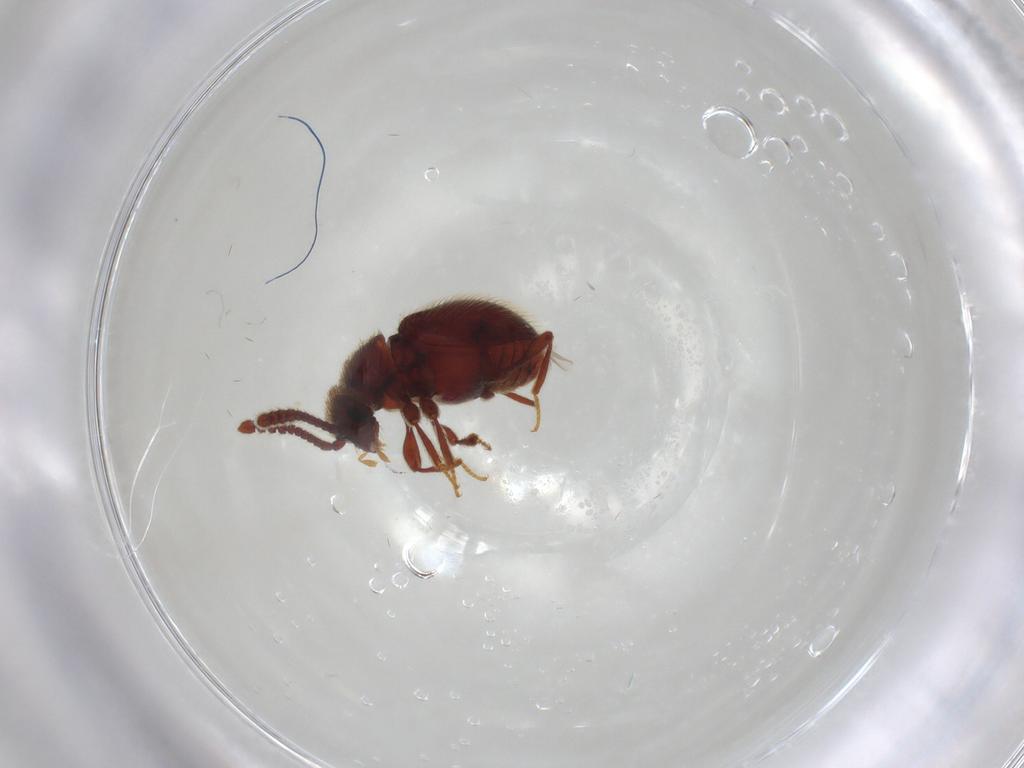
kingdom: Animalia
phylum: Arthropoda
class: Insecta
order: Coleoptera
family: Staphylinidae
